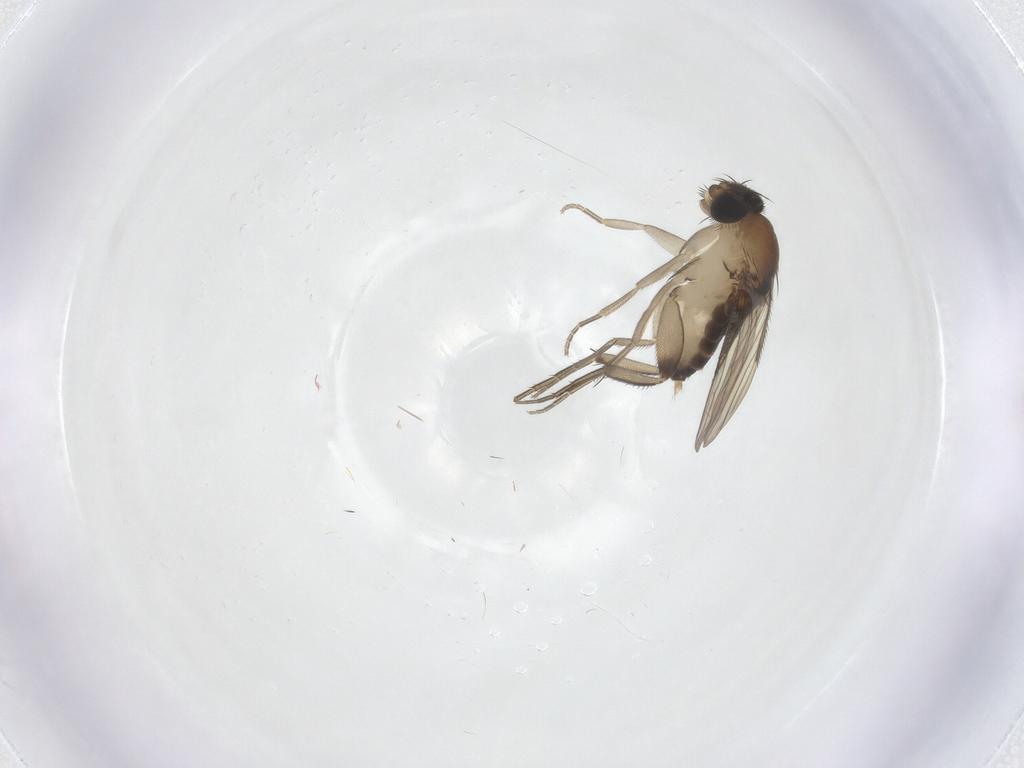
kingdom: Animalia
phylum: Arthropoda
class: Insecta
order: Diptera
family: Phoridae
